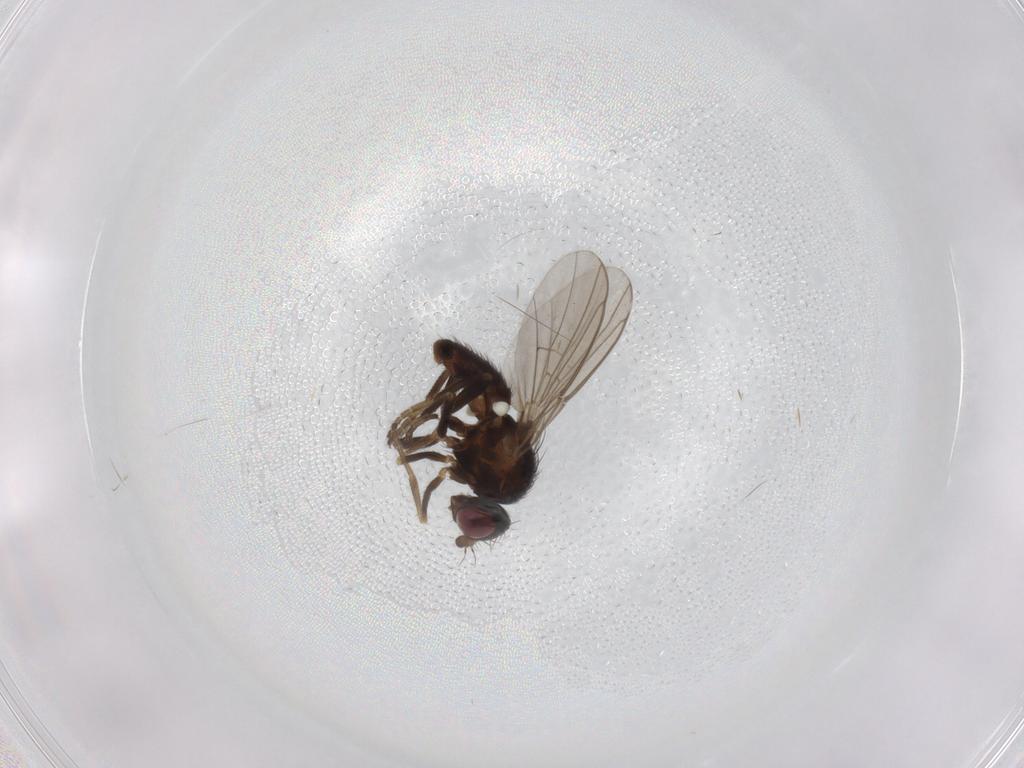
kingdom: Animalia
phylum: Arthropoda
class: Insecta
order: Diptera
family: Agromyzidae
